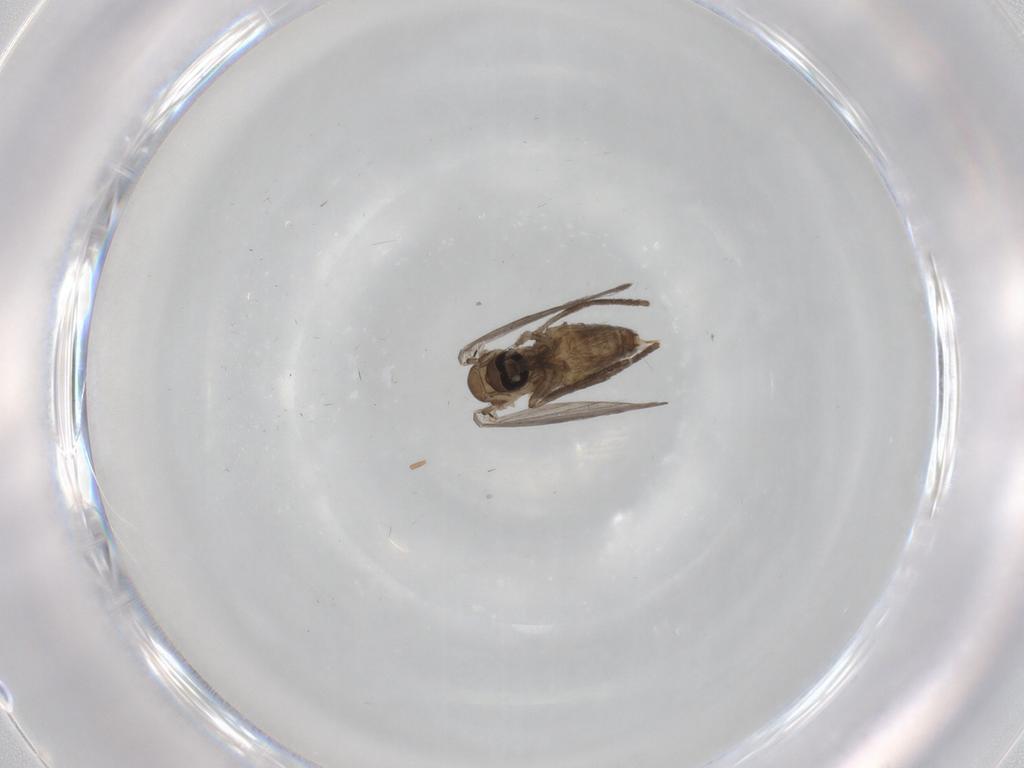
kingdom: Animalia
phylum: Arthropoda
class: Insecta
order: Diptera
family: Psychodidae
